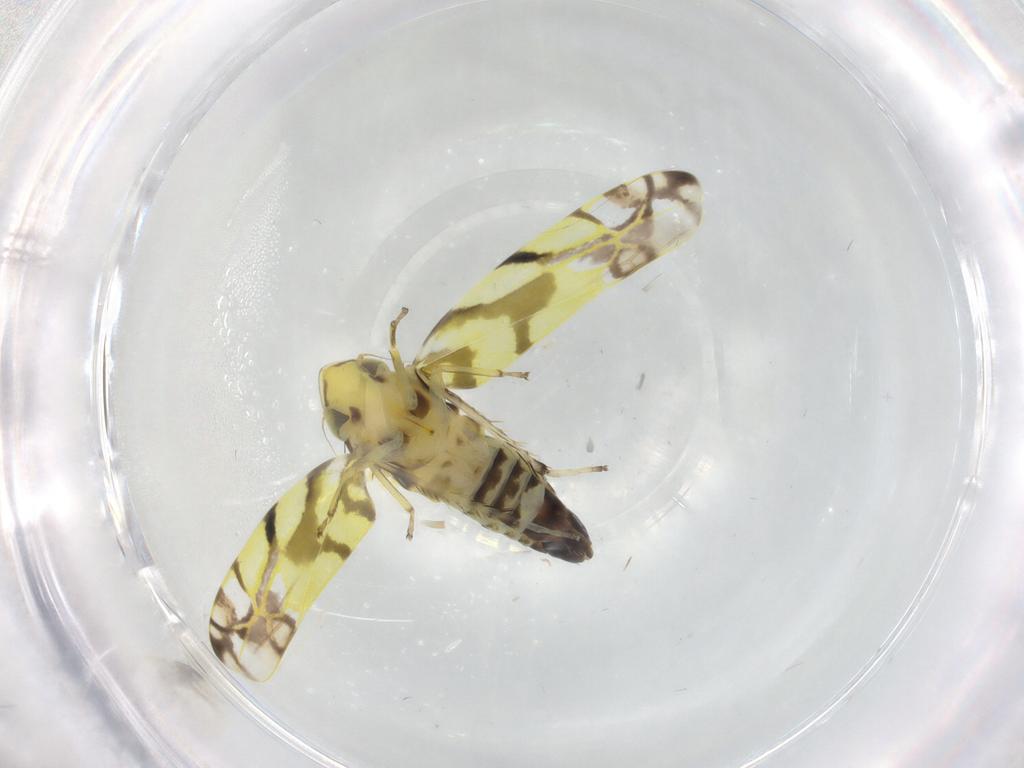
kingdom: Animalia
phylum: Arthropoda
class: Insecta
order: Hemiptera
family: Cicadellidae
